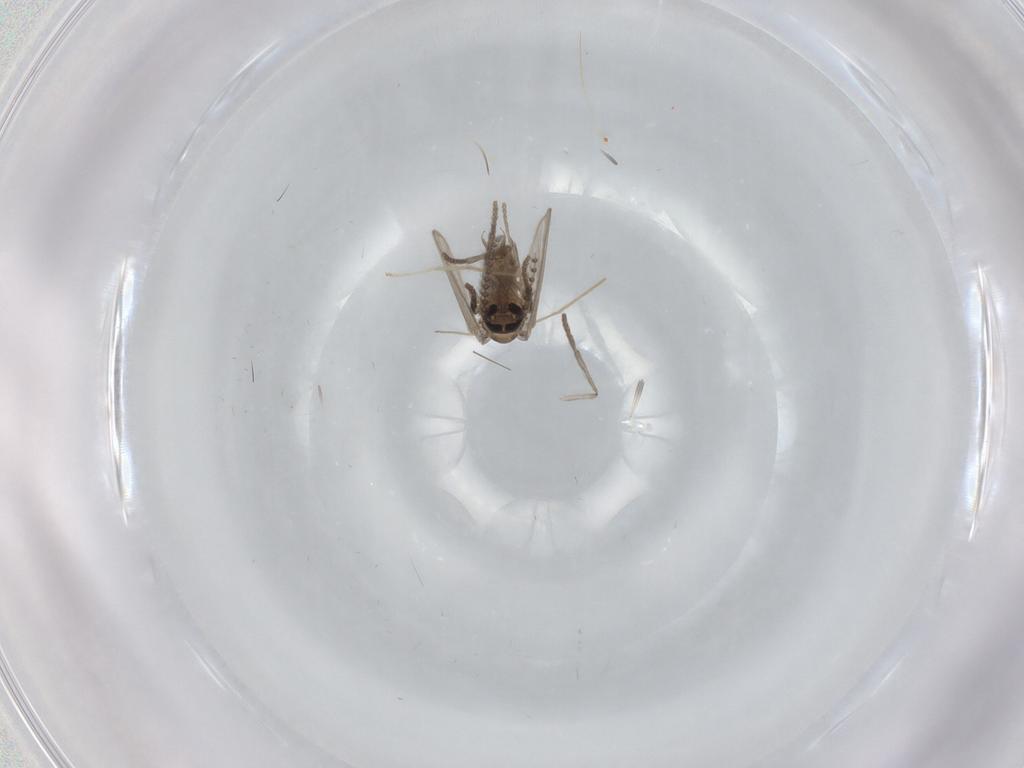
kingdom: Animalia
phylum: Arthropoda
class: Insecta
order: Diptera
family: Psychodidae
